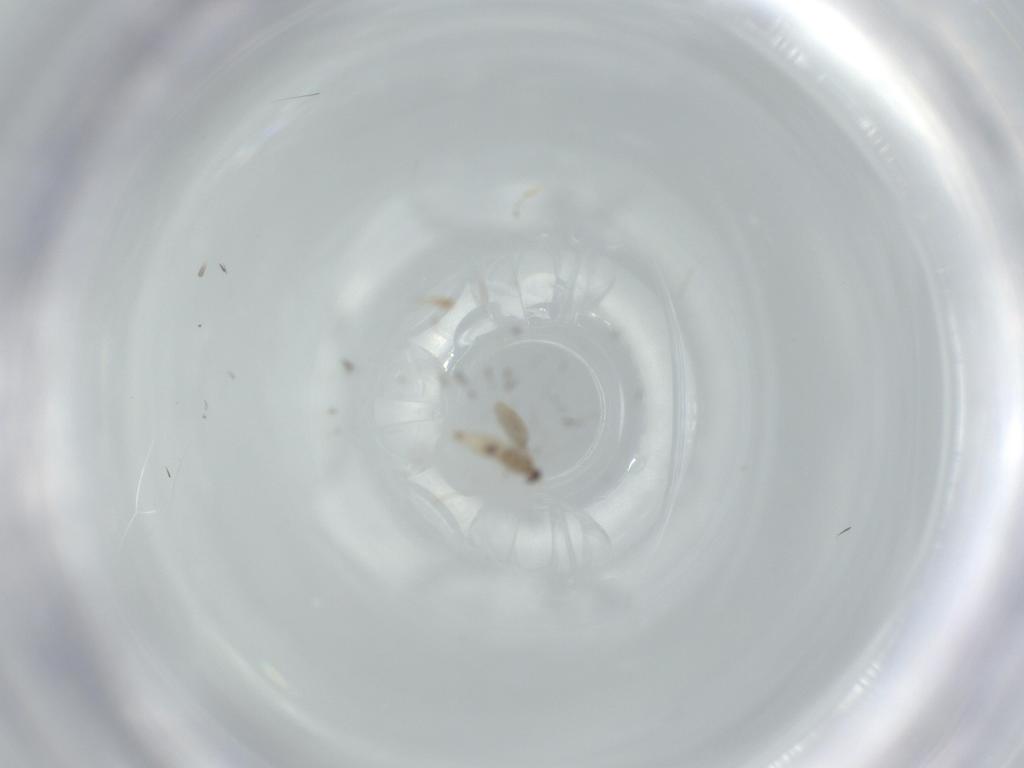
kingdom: Animalia
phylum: Arthropoda
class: Insecta
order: Diptera
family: Cecidomyiidae
